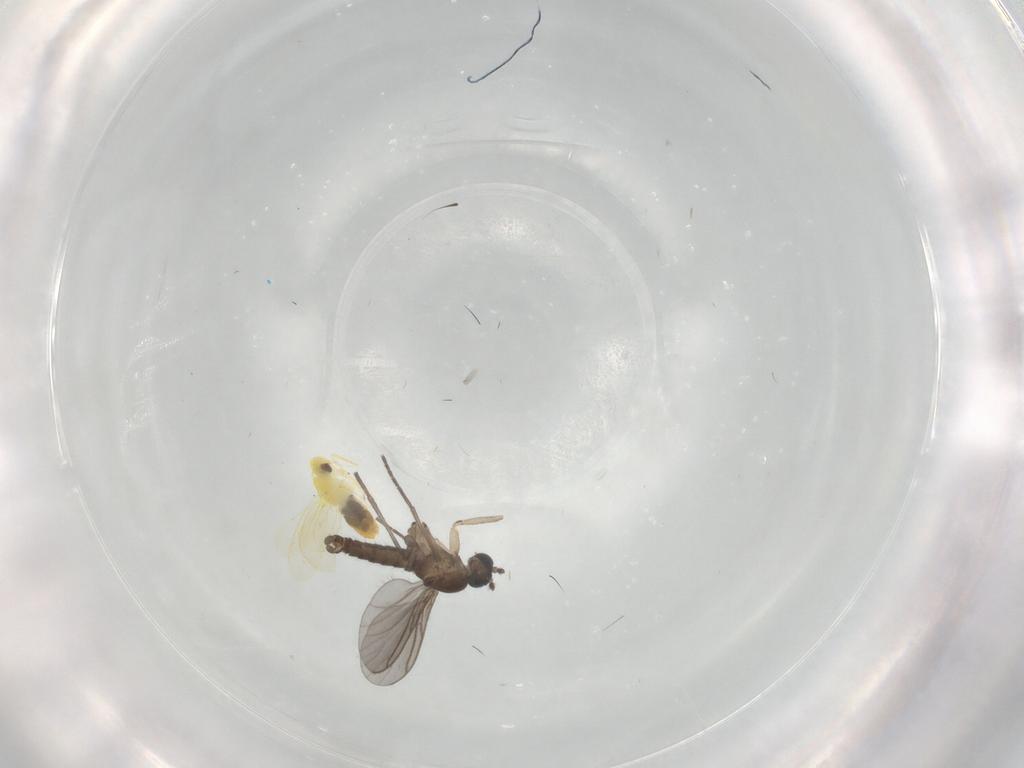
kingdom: Animalia
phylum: Arthropoda
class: Insecta
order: Diptera
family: Sciaridae
